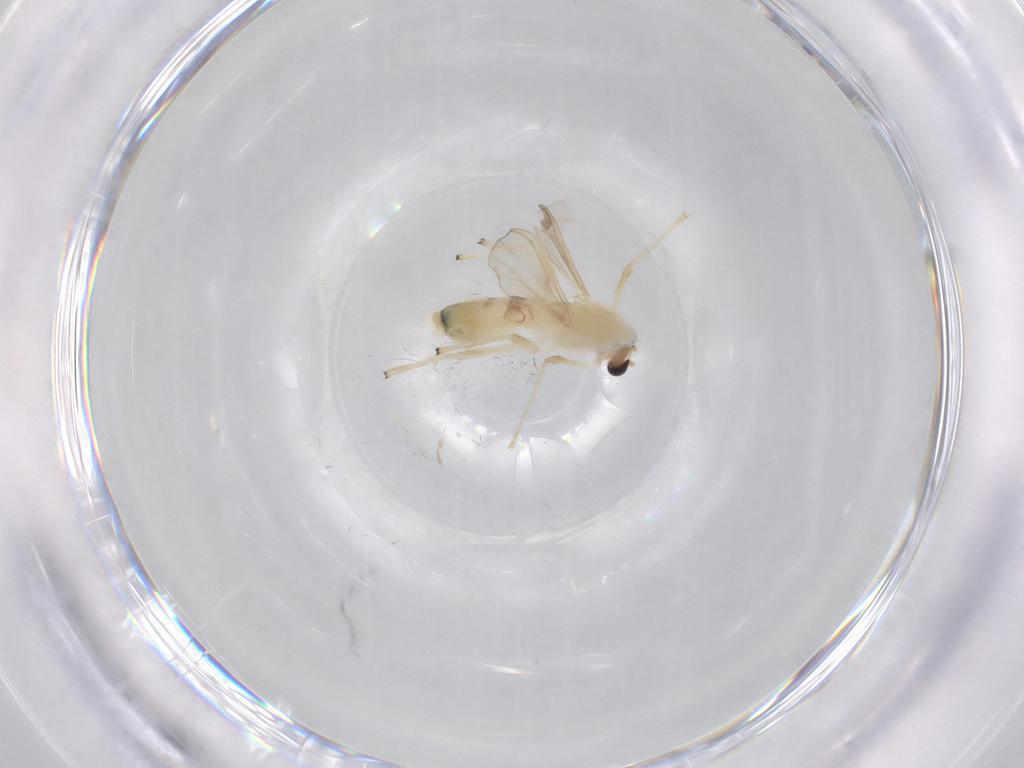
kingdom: Animalia
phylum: Arthropoda
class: Insecta
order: Diptera
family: Chironomidae
